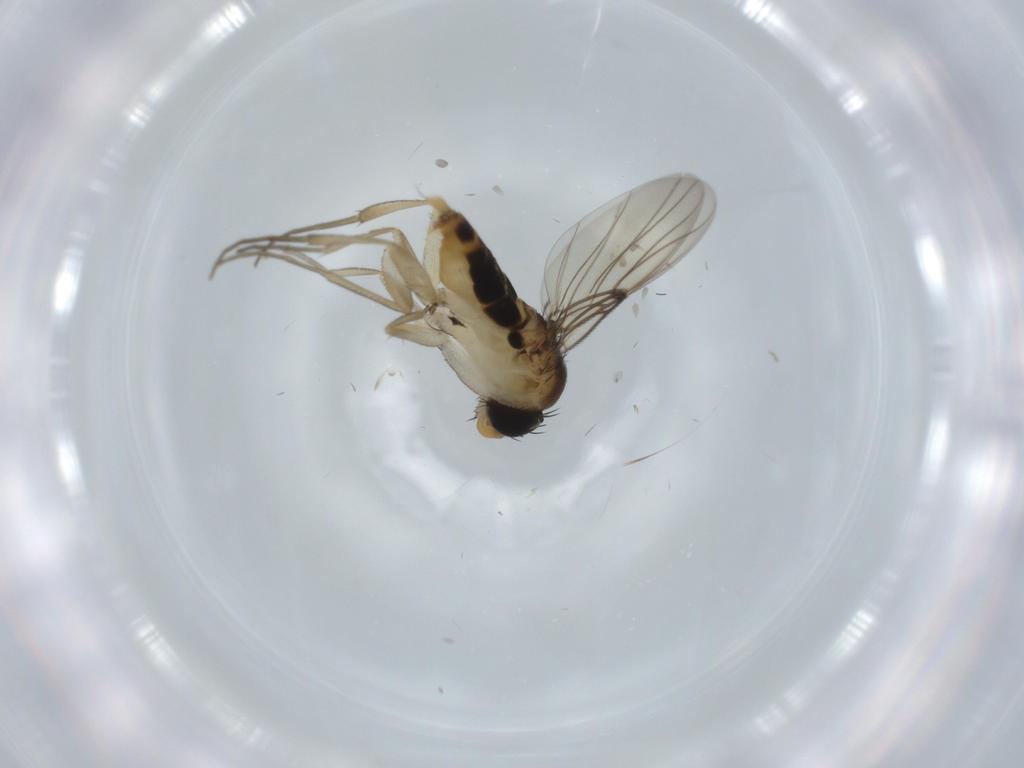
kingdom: Animalia
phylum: Arthropoda
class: Insecta
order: Diptera
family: Phoridae
